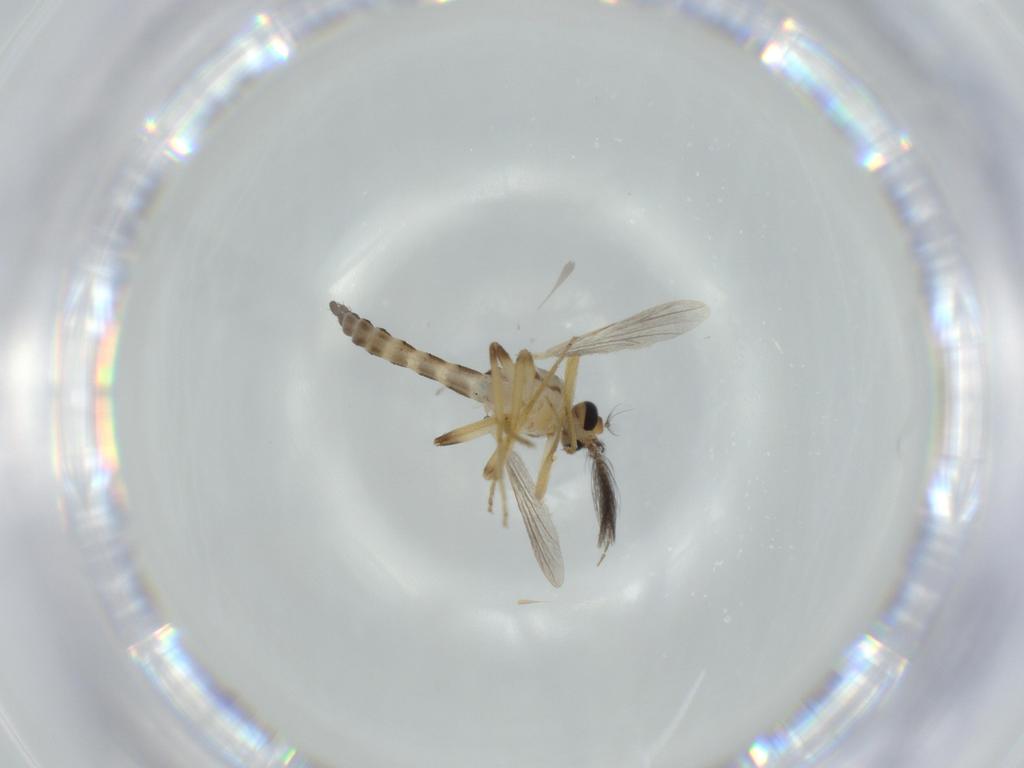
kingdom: Animalia
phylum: Arthropoda
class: Insecta
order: Diptera
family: Ceratopogonidae
